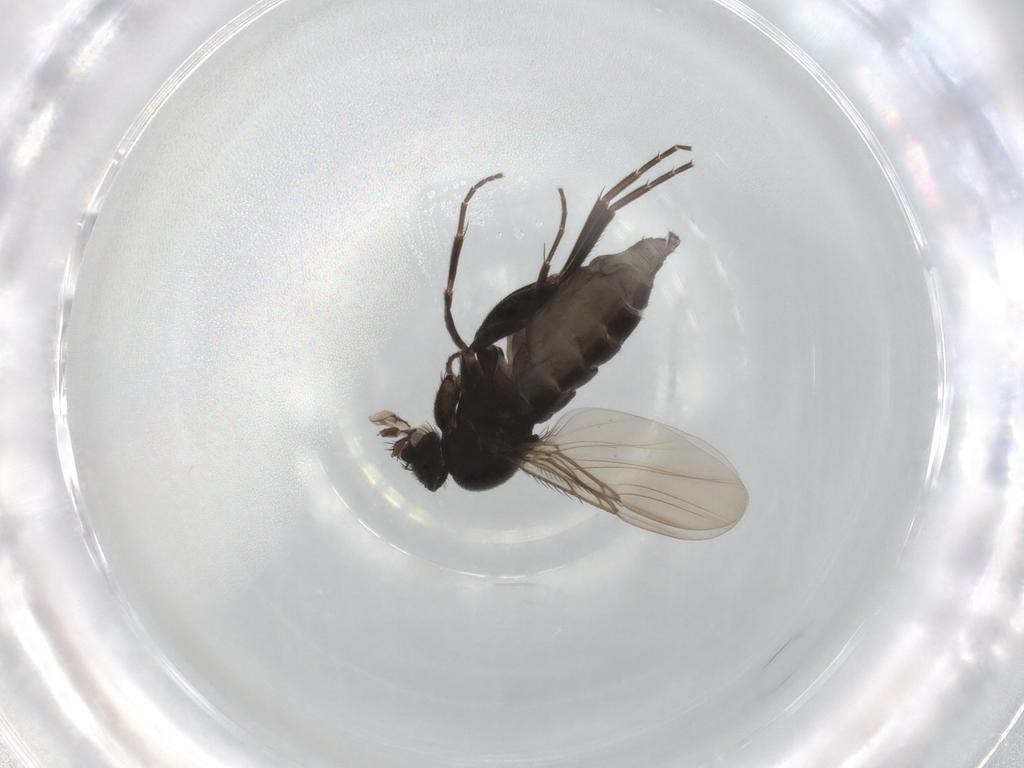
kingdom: Animalia
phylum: Arthropoda
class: Insecta
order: Diptera
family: Phoridae
